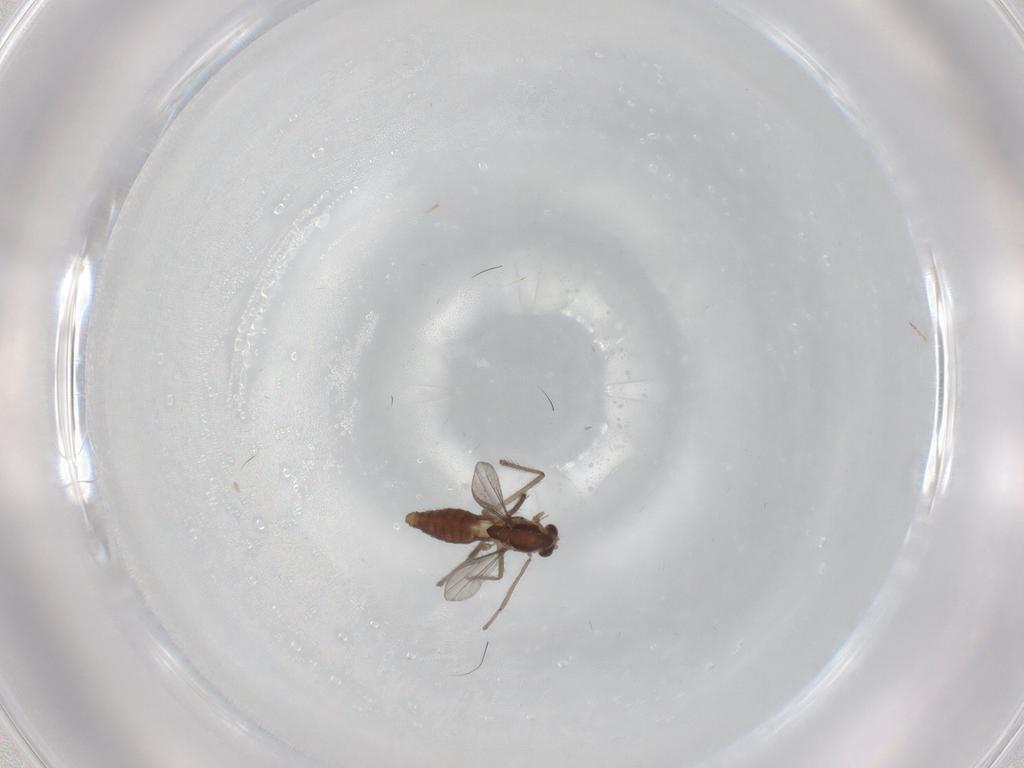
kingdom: Animalia
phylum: Arthropoda
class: Insecta
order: Diptera
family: Chironomidae
